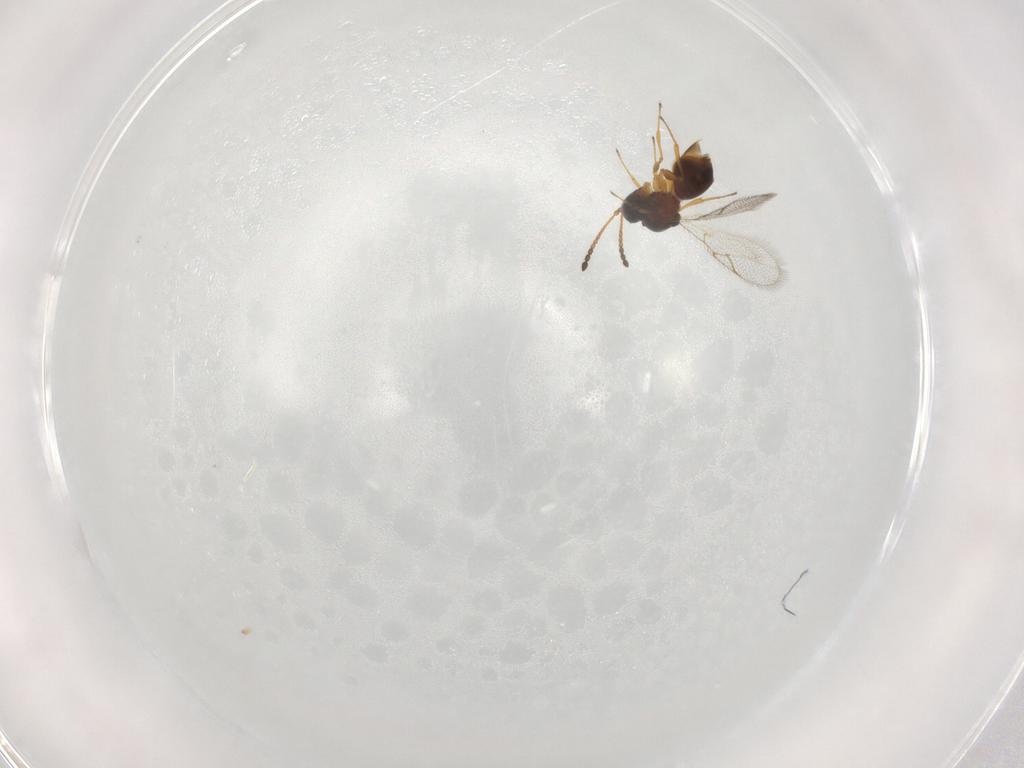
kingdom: Animalia
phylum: Arthropoda
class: Insecta
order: Hymenoptera
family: Figitidae
